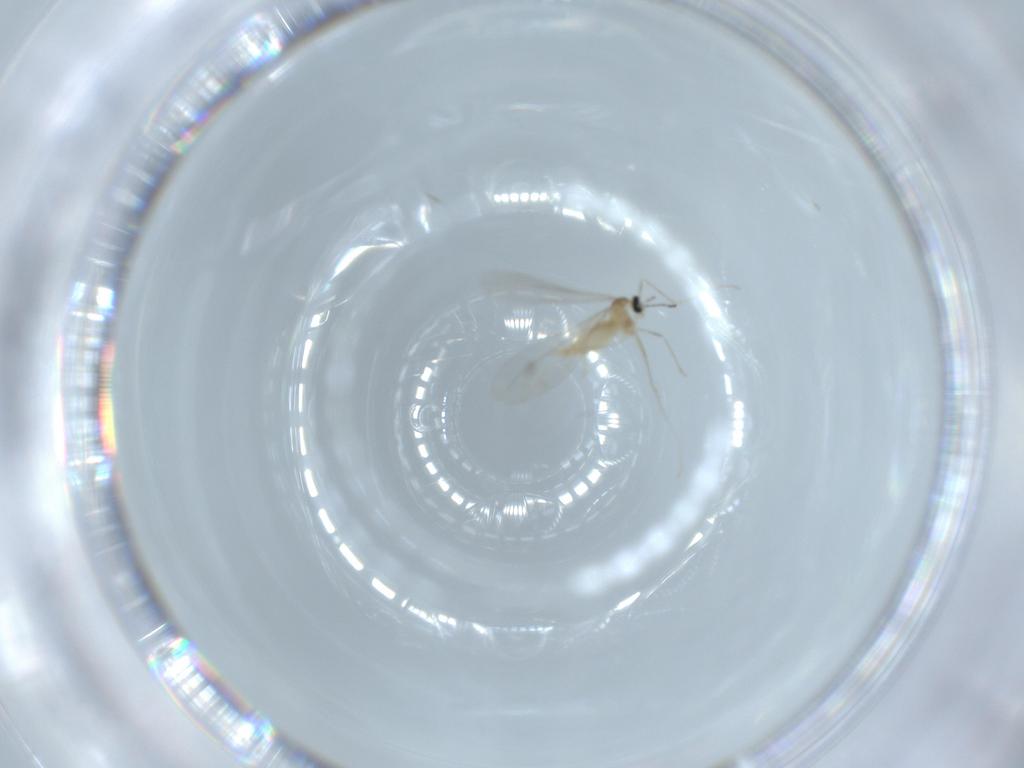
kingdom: Animalia
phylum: Arthropoda
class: Insecta
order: Diptera
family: Cecidomyiidae
